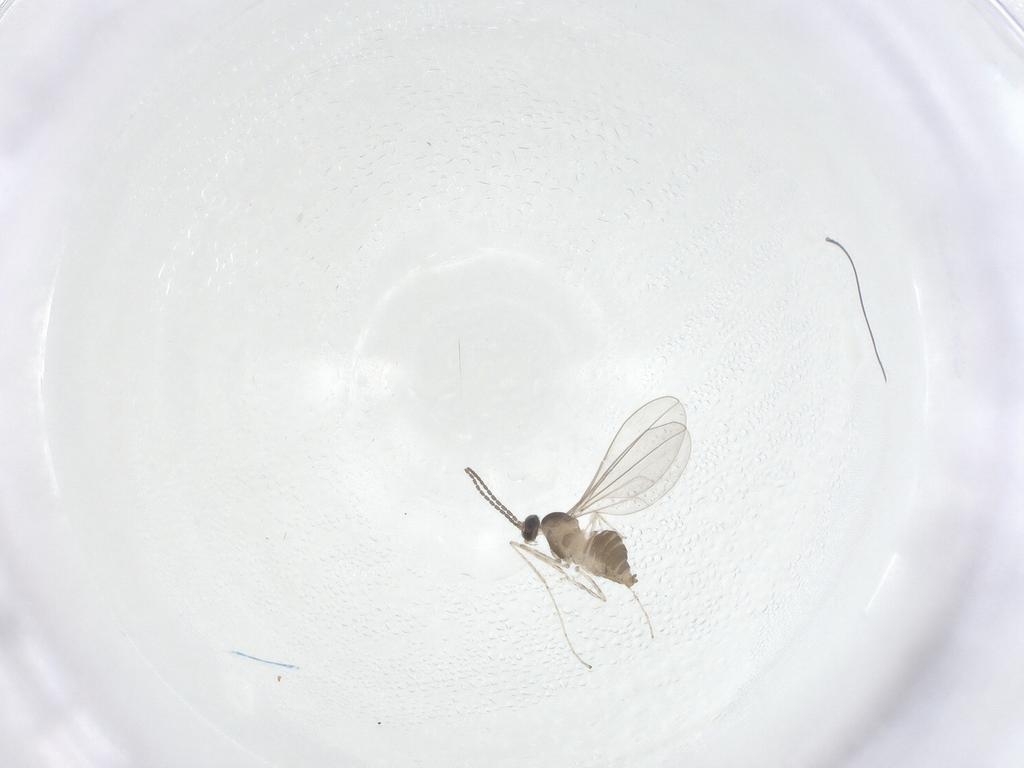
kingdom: Animalia
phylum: Arthropoda
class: Insecta
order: Diptera
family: Cecidomyiidae
